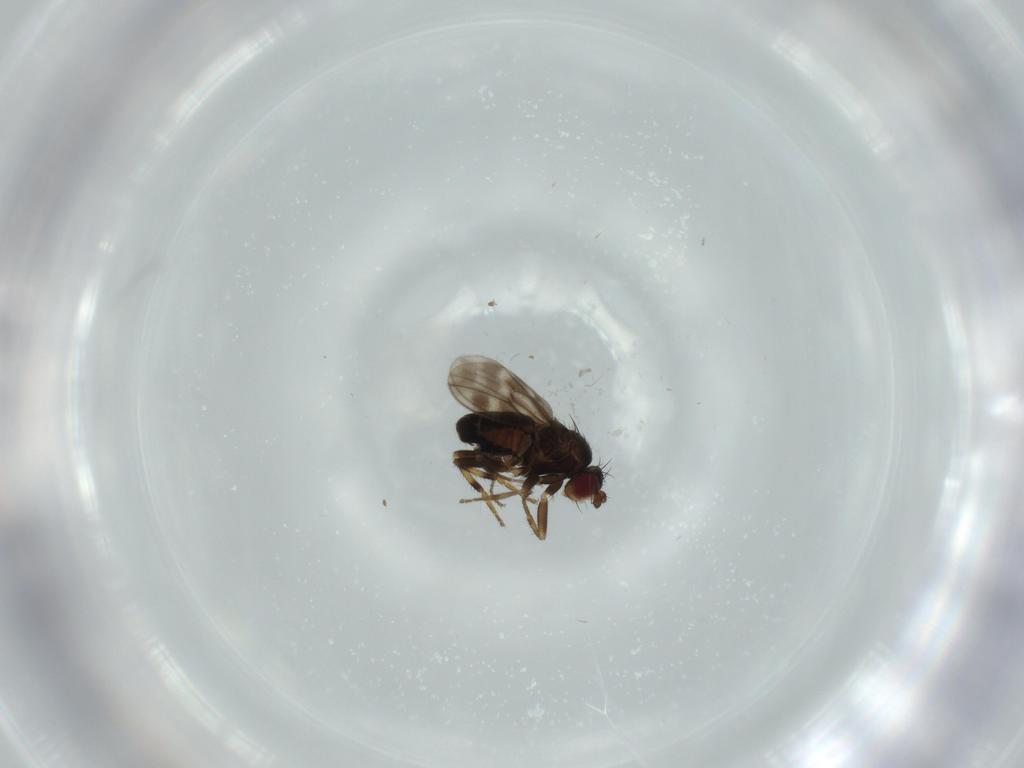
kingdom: Animalia
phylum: Arthropoda
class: Insecta
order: Diptera
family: Sphaeroceridae
